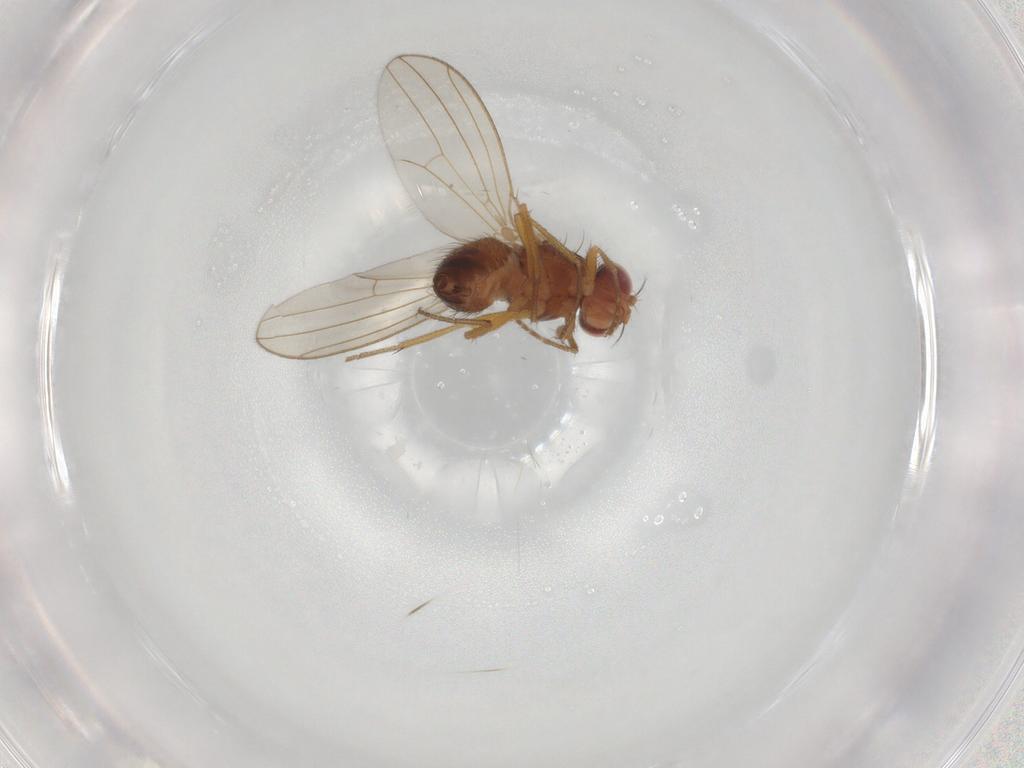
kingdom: Animalia
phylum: Arthropoda
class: Insecta
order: Diptera
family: Drosophilidae
